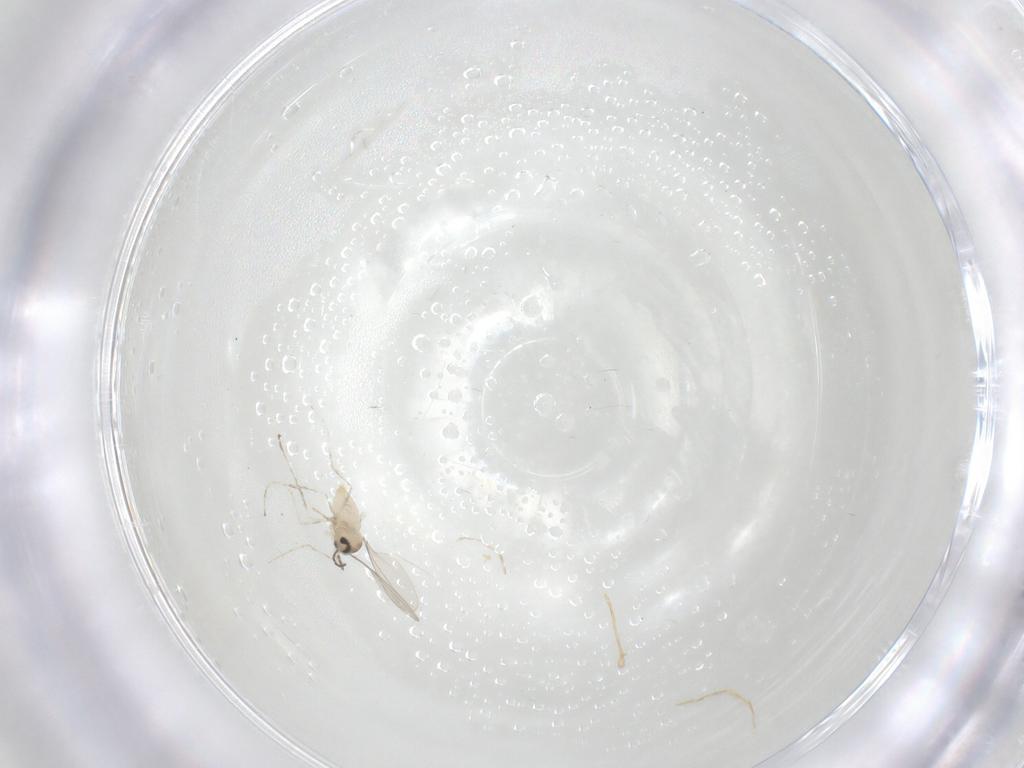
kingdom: Animalia
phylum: Arthropoda
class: Insecta
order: Diptera
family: Cecidomyiidae
